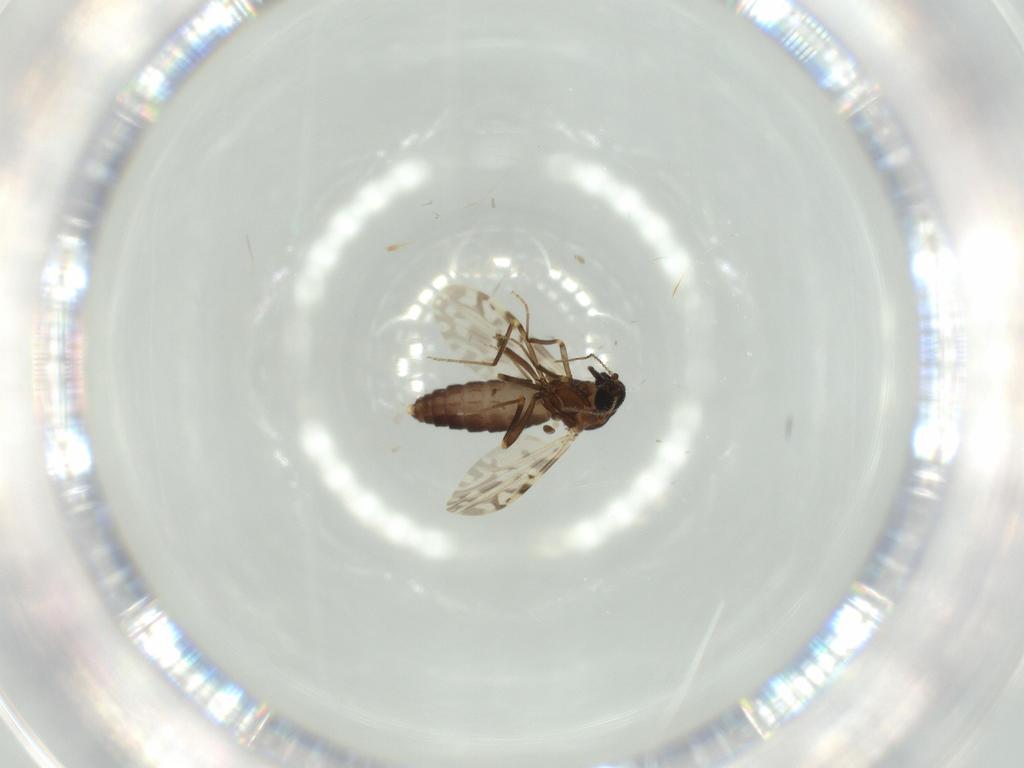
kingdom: Animalia
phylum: Arthropoda
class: Insecta
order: Diptera
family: Ceratopogonidae
